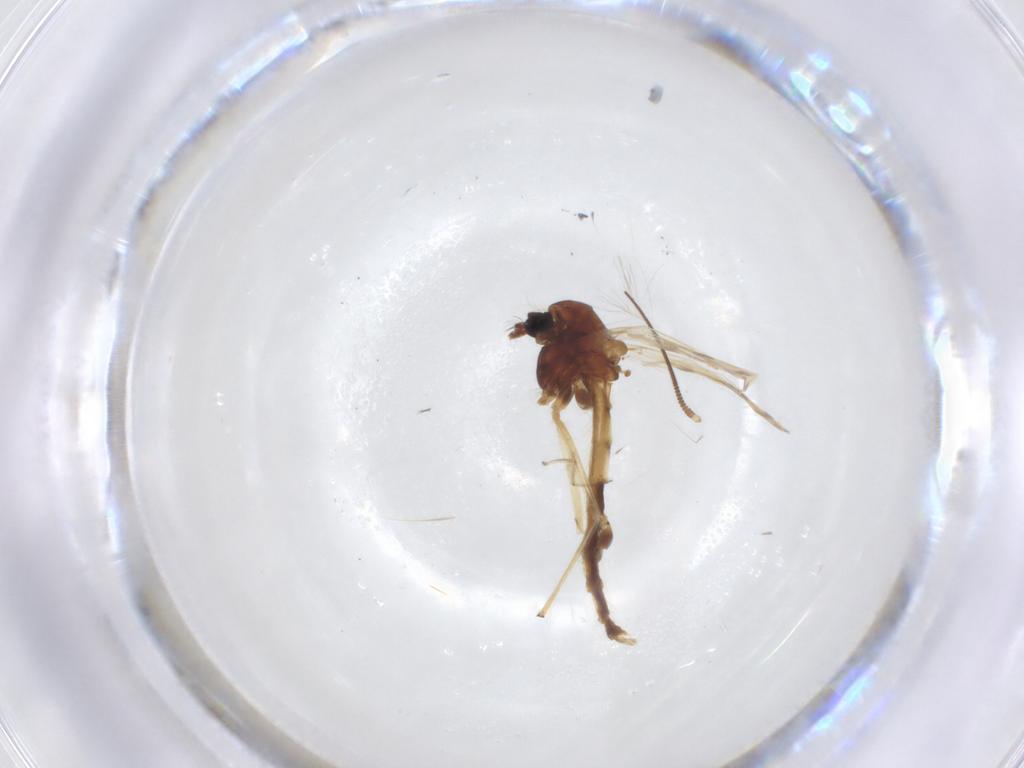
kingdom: Animalia
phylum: Arthropoda
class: Insecta
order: Diptera
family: Chironomidae
